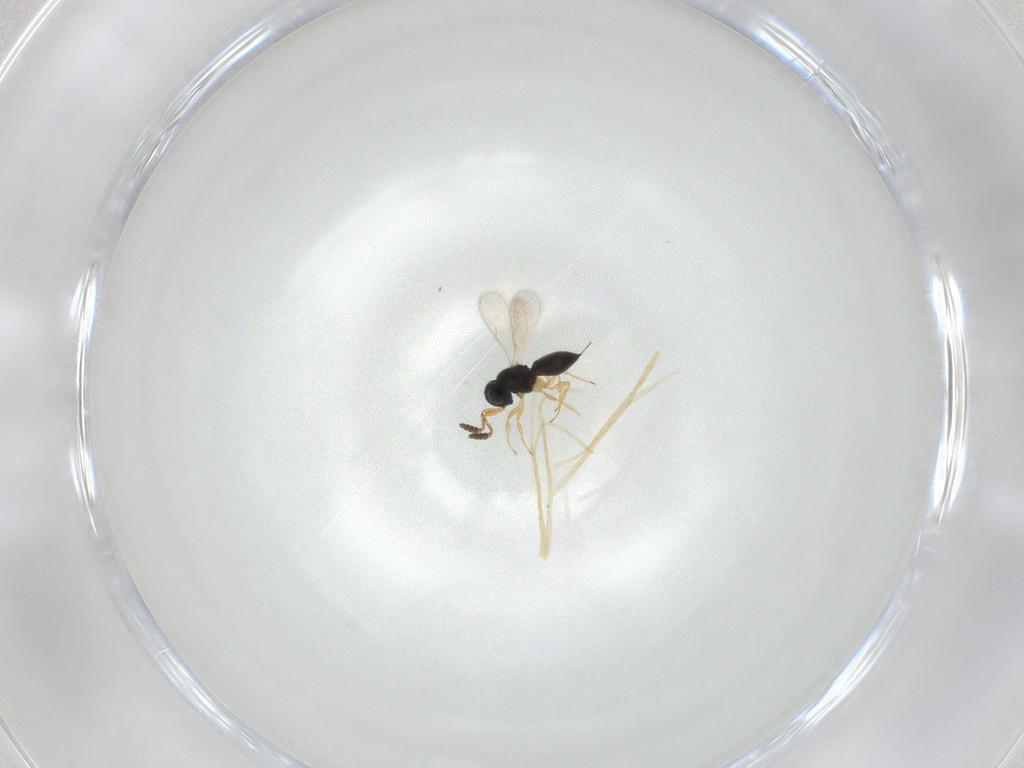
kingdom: Animalia
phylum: Arthropoda
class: Insecta
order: Hymenoptera
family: Scelionidae
